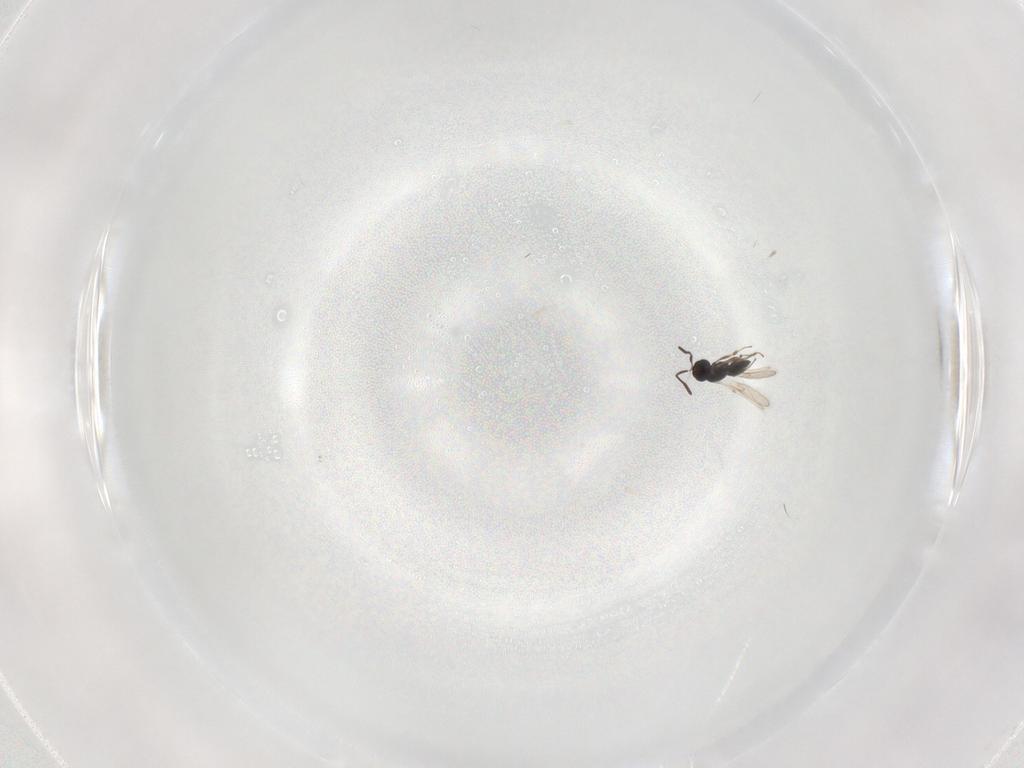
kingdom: Animalia
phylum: Arthropoda
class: Insecta
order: Hymenoptera
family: Scelionidae
